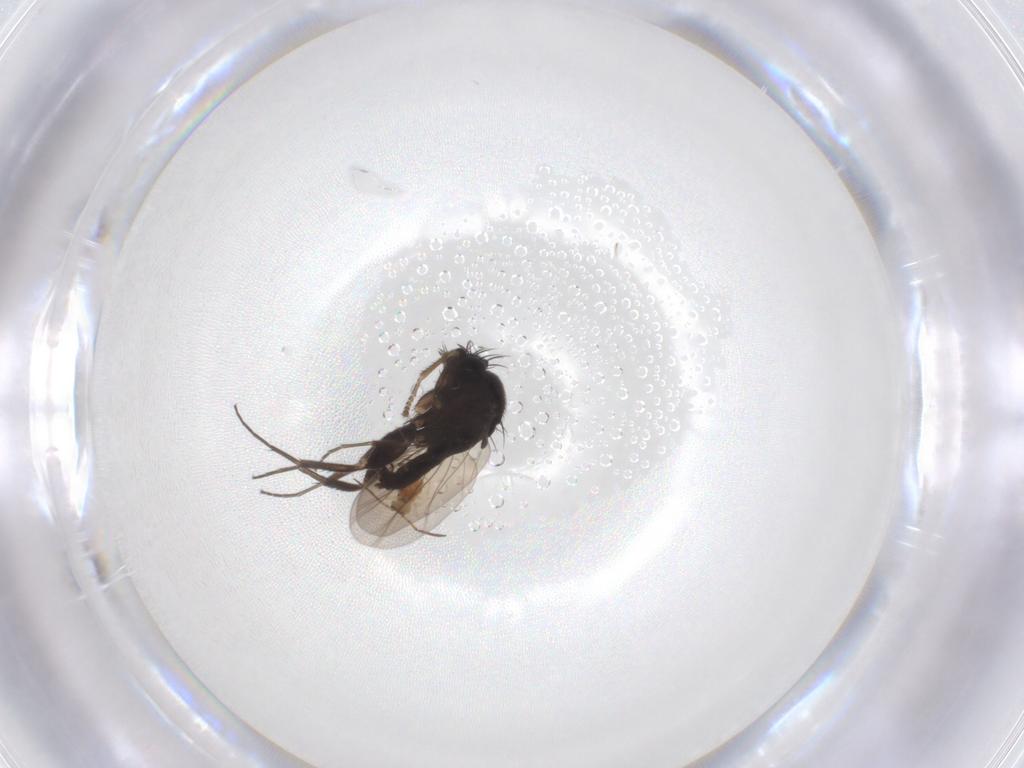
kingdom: Animalia
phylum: Arthropoda
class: Insecta
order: Diptera
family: Phoridae
